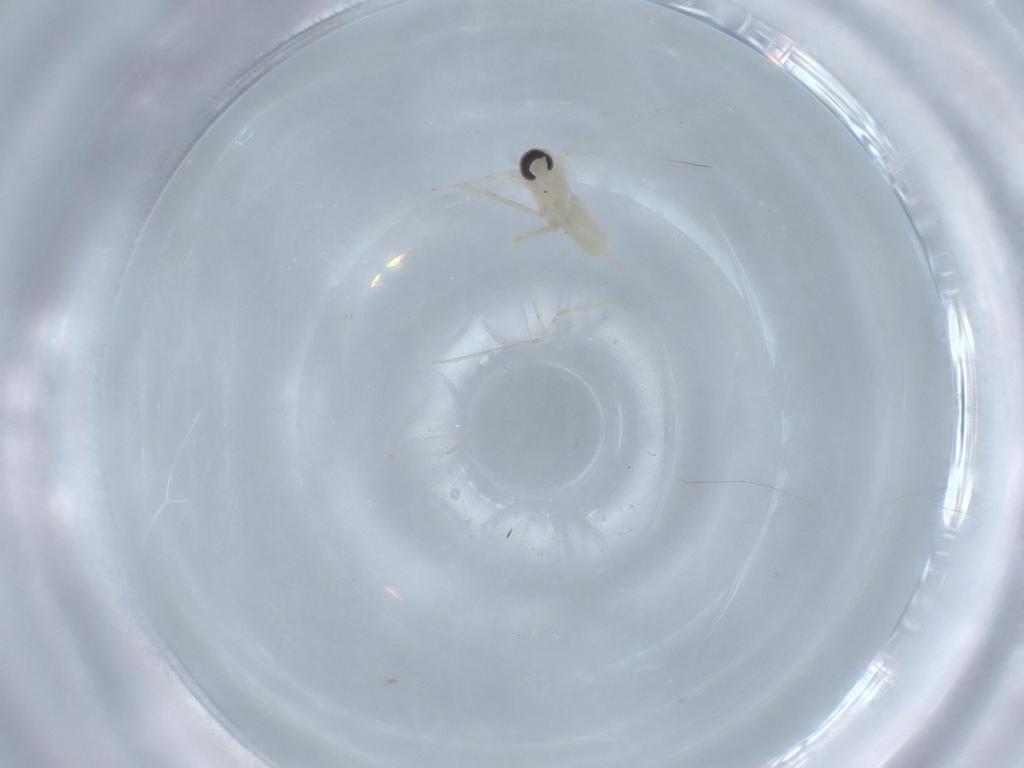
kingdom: Animalia
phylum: Arthropoda
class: Insecta
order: Diptera
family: Cecidomyiidae
